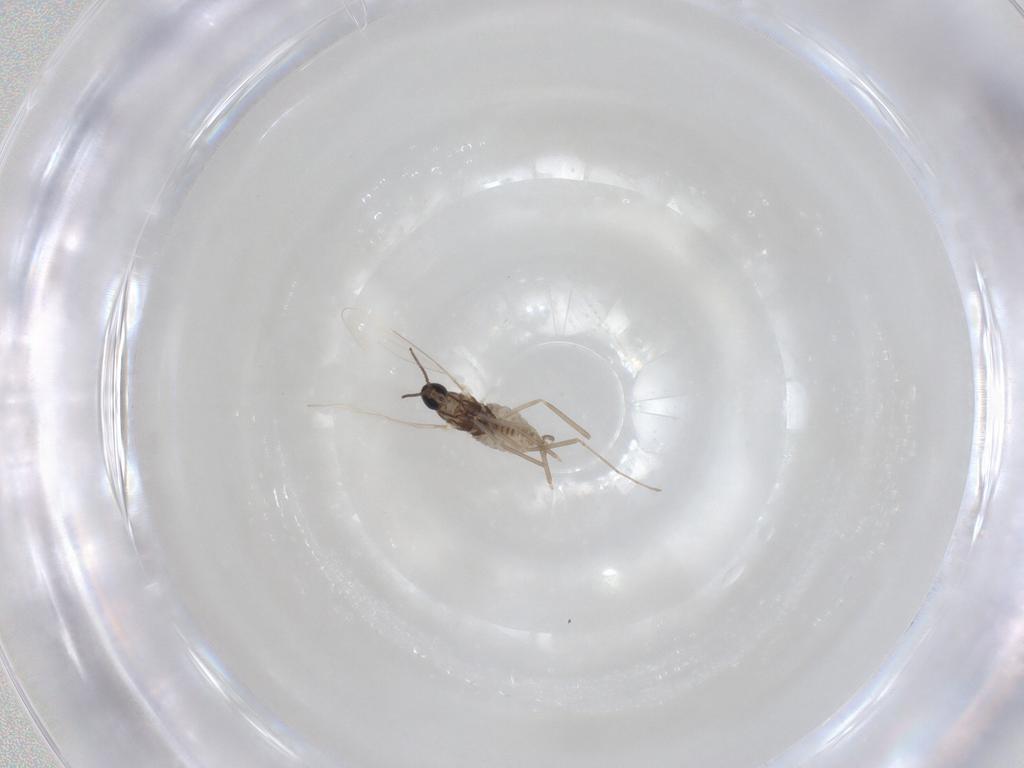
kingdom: Animalia
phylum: Arthropoda
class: Insecta
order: Diptera
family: Cecidomyiidae
